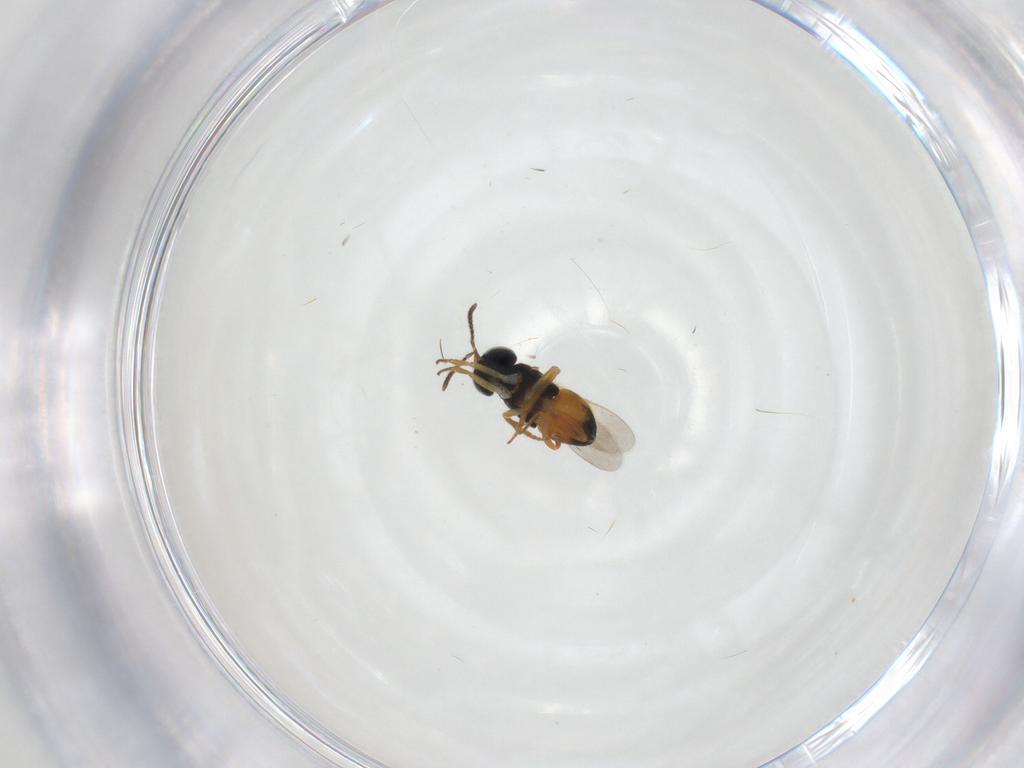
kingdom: Animalia
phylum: Arthropoda
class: Insecta
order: Hymenoptera
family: Encyrtidae
